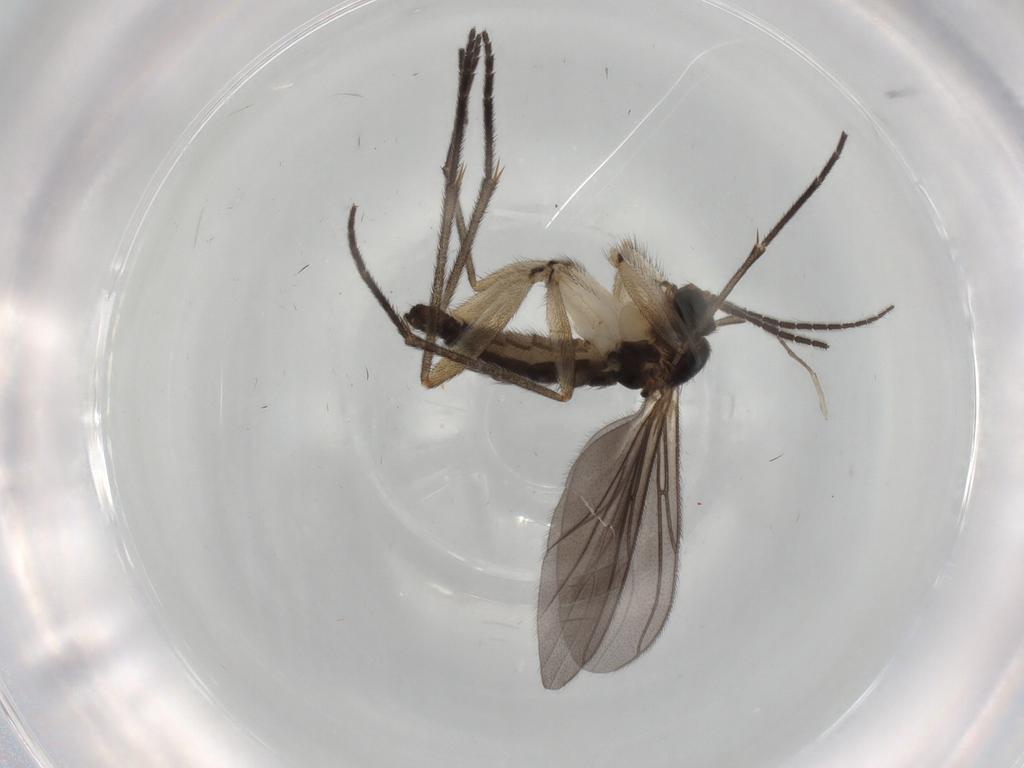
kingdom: Animalia
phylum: Arthropoda
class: Insecta
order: Diptera
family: Sciaridae
